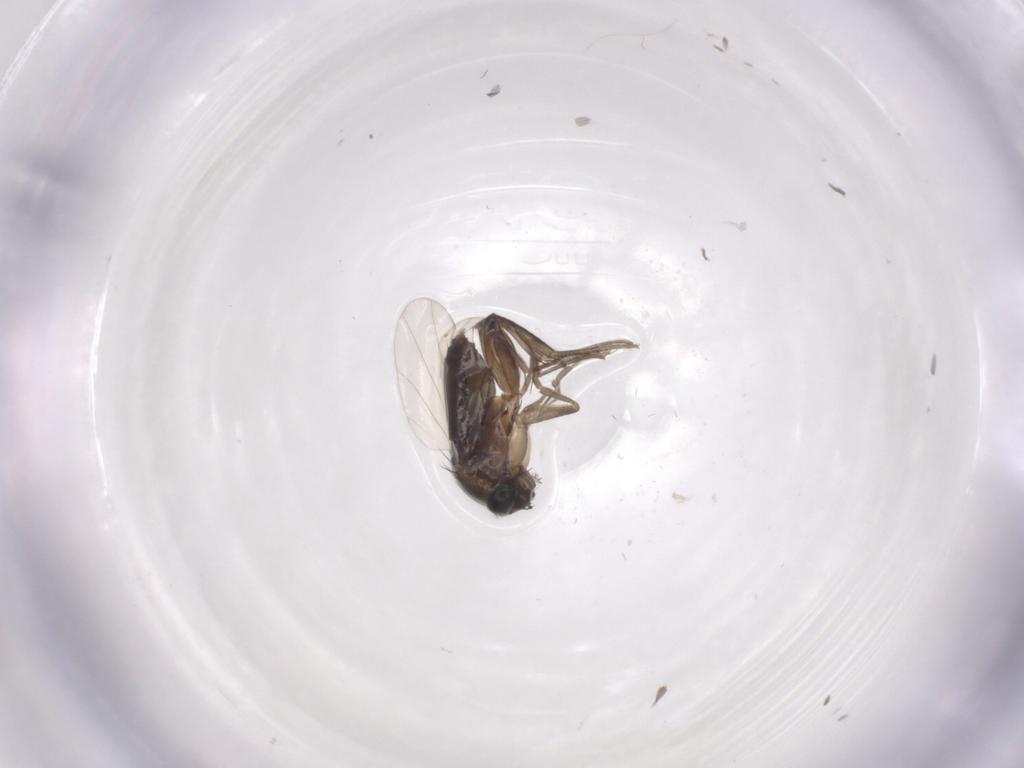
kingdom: Animalia
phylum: Arthropoda
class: Insecta
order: Diptera
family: Phoridae
